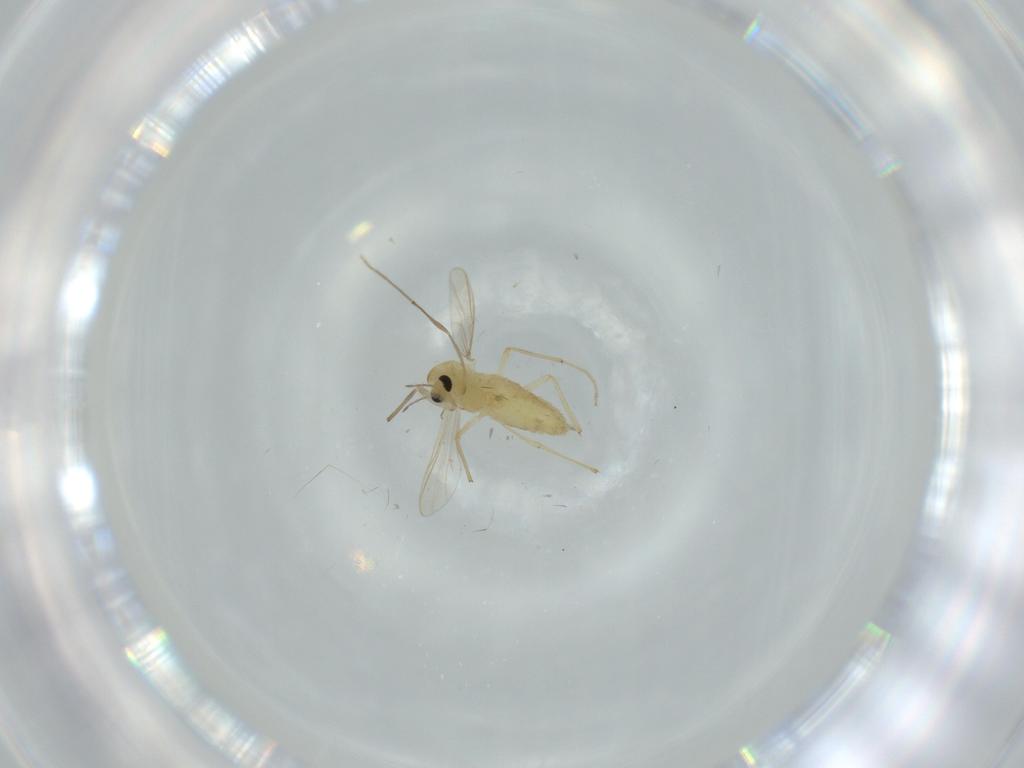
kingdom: Animalia
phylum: Arthropoda
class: Insecta
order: Diptera
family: Chironomidae
